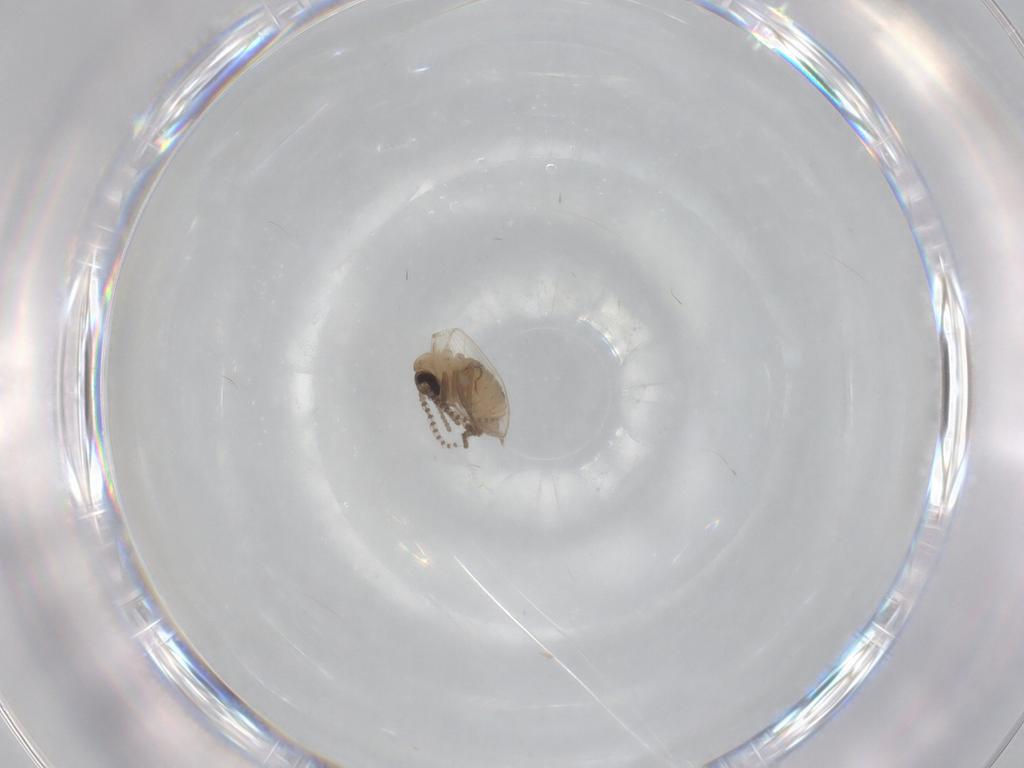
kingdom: Animalia
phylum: Arthropoda
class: Insecta
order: Diptera
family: Psychodidae
